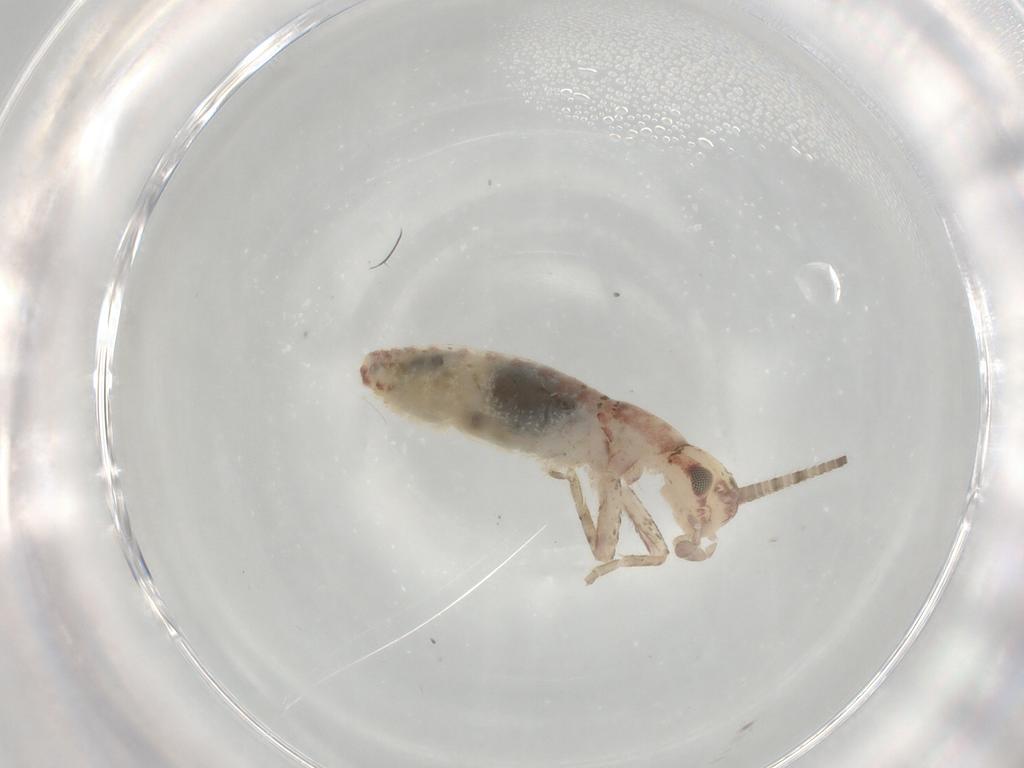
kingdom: Animalia
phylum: Arthropoda
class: Insecta
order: Orthoptera
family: Mogoplistidae
